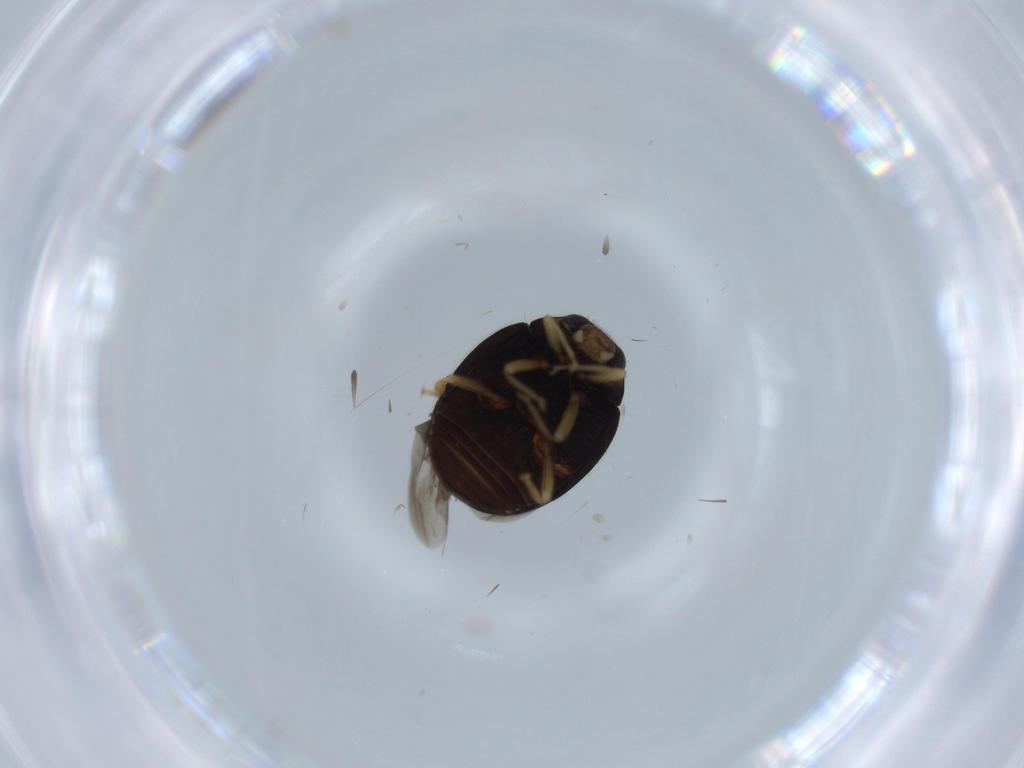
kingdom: Animalia
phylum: Arthropoda
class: Insecta
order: Coleoptera
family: Coccinellidae
